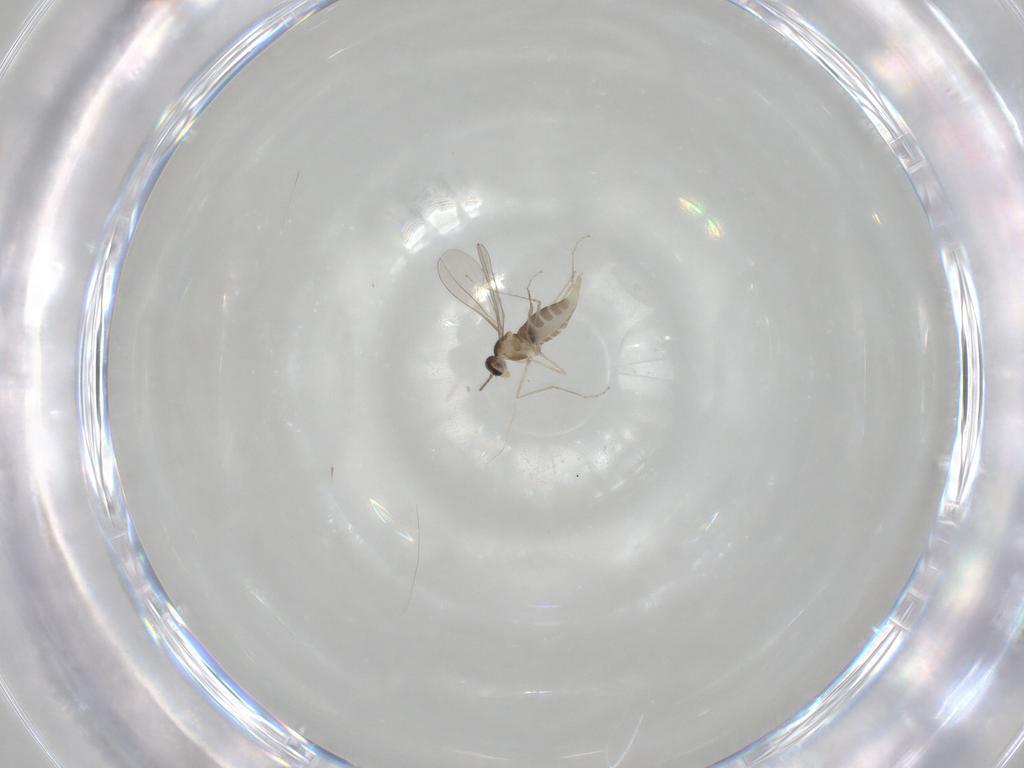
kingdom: Animalia
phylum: Arthropoda
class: Insecta
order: Diptera
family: Cecidomyiidae
